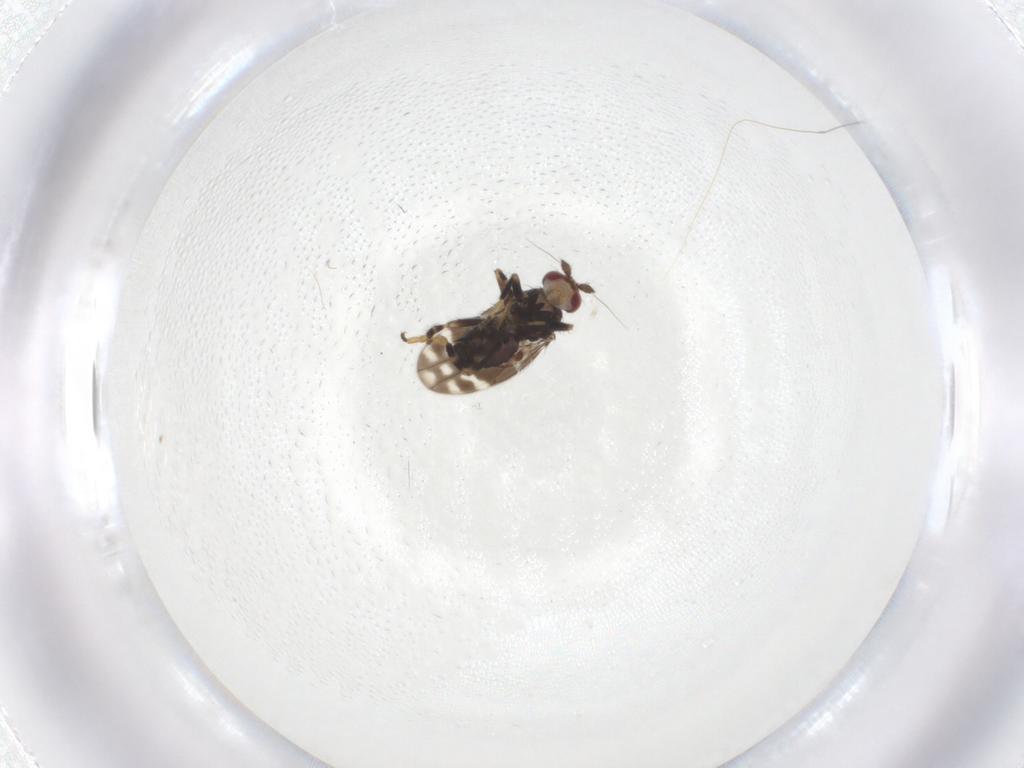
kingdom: Animalia
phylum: Arthropoda
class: Insecta
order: Diptera
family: Sphaeroceridae
